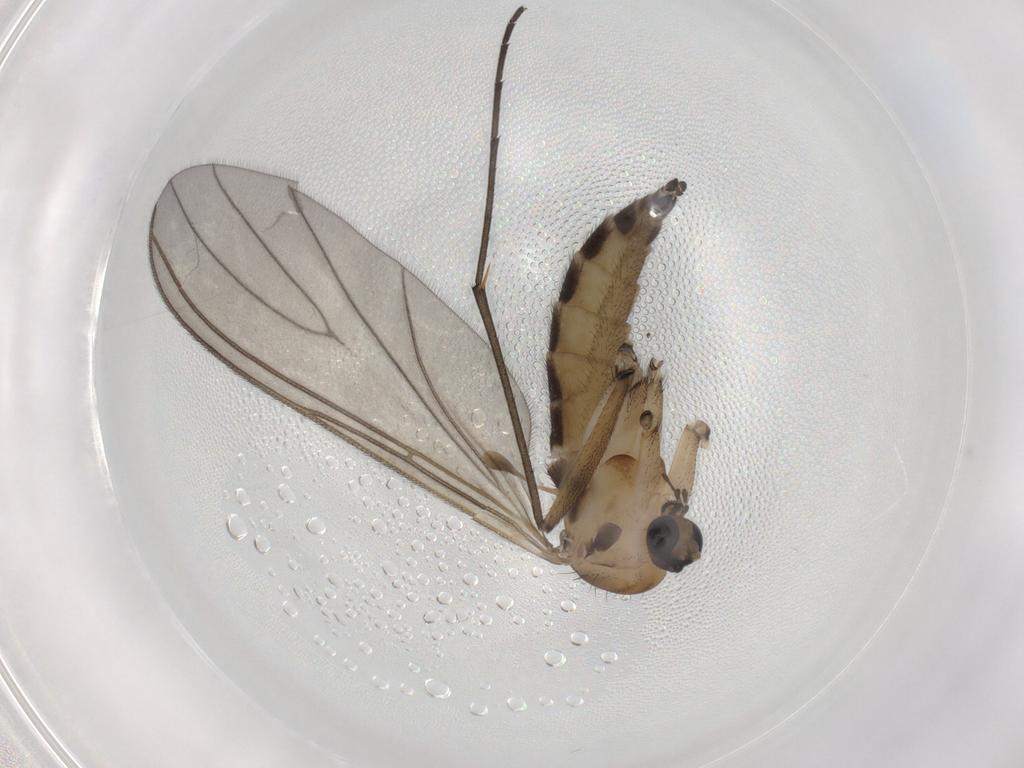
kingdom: Animalia
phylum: Arthropoda
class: Insecta
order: Diptera
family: Sciaridae
